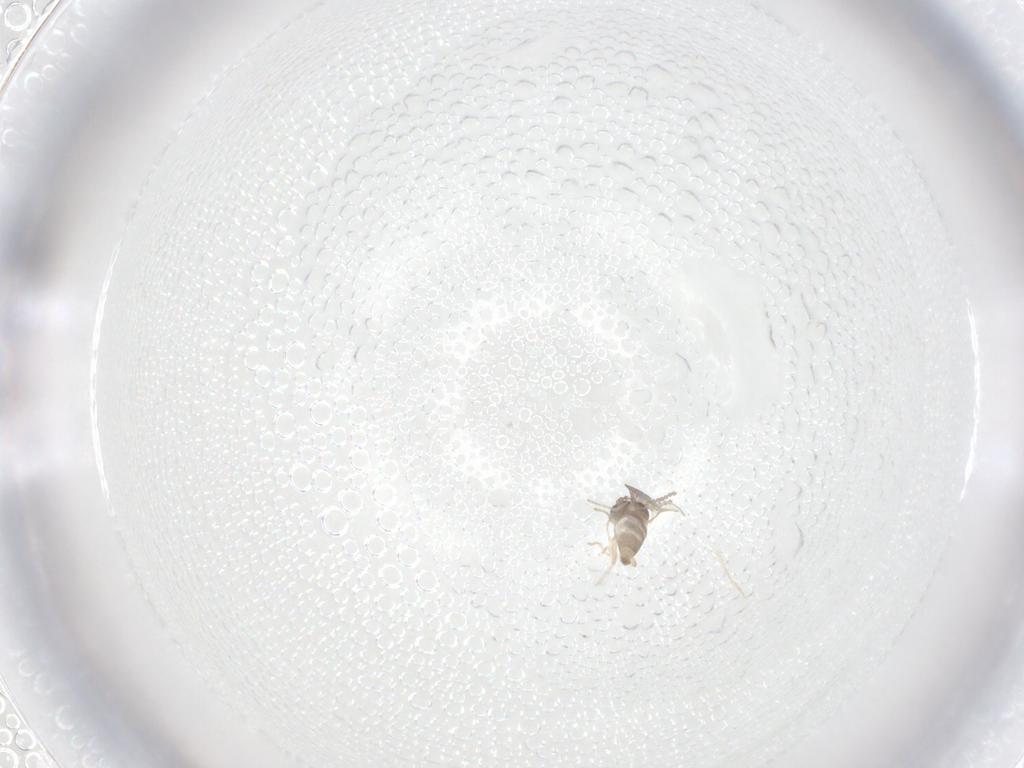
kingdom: Animalia
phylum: Arthropoda
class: Insecta
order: Diptera
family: Cecidomyiidae
